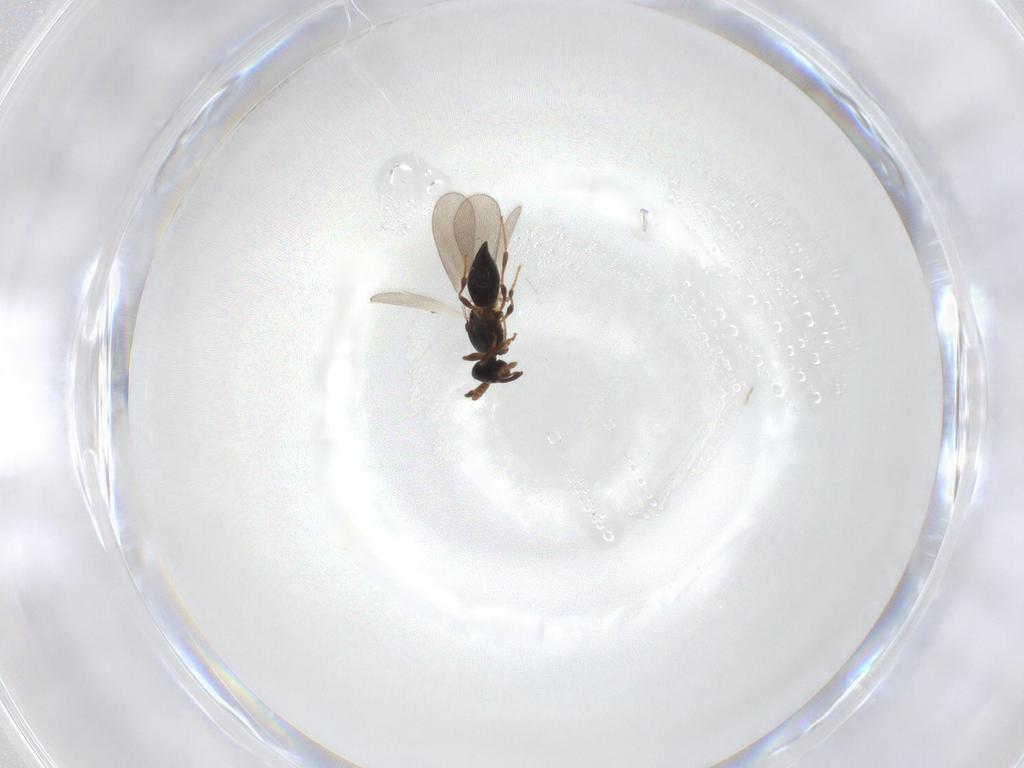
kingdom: Animalia
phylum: Arthropoda
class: Insecta
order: Hymenoptera
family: Platygastridae
